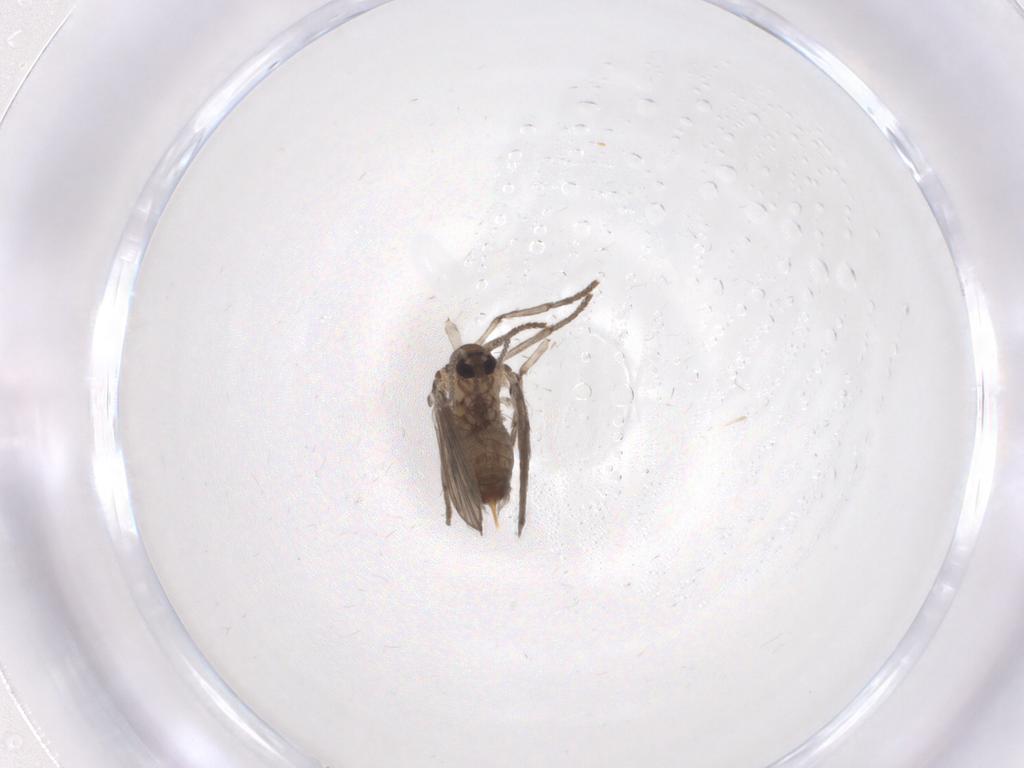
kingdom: Animalia
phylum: Arthropoda
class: Insecta
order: Diptera
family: Psychodidae
